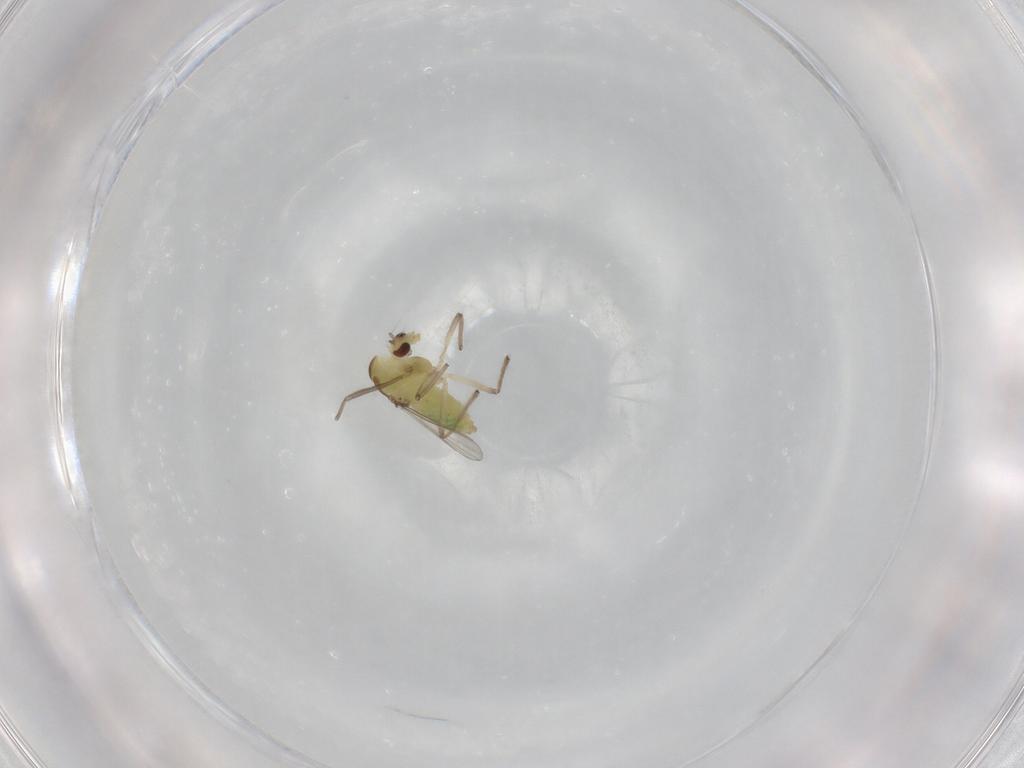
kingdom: Animalia
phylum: Arthropoda
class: Insecta
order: Diptera
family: Chironomidae
